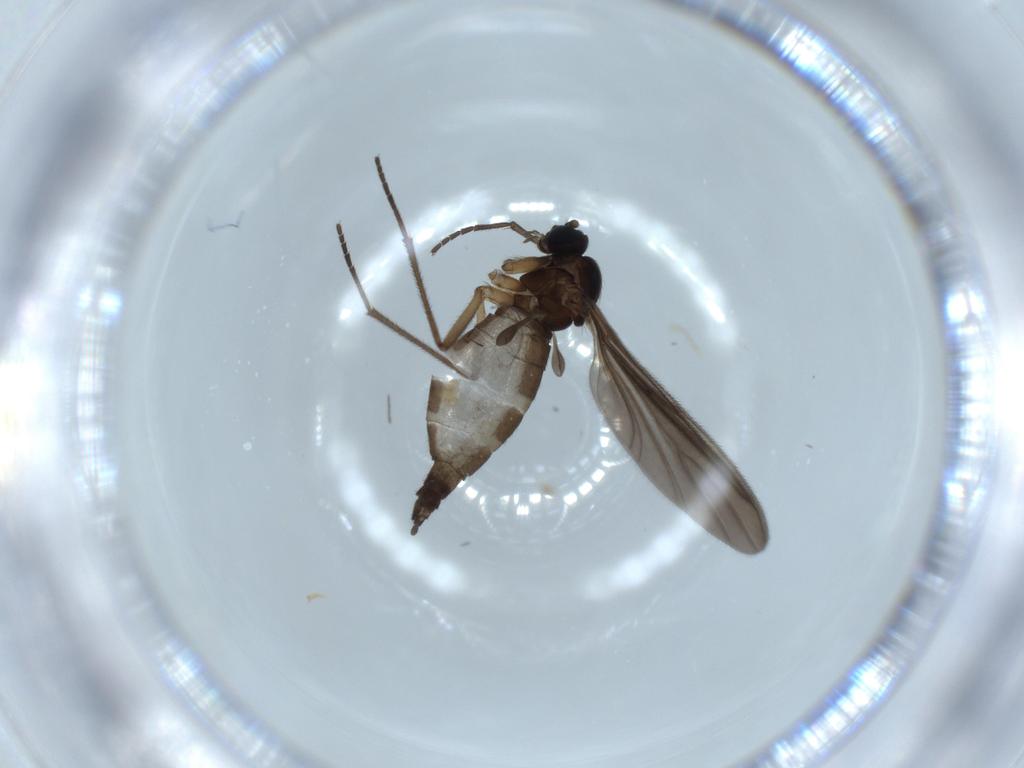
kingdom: Animalia
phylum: Arthropoda
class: Insecta
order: Diptera
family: Sciaridae
